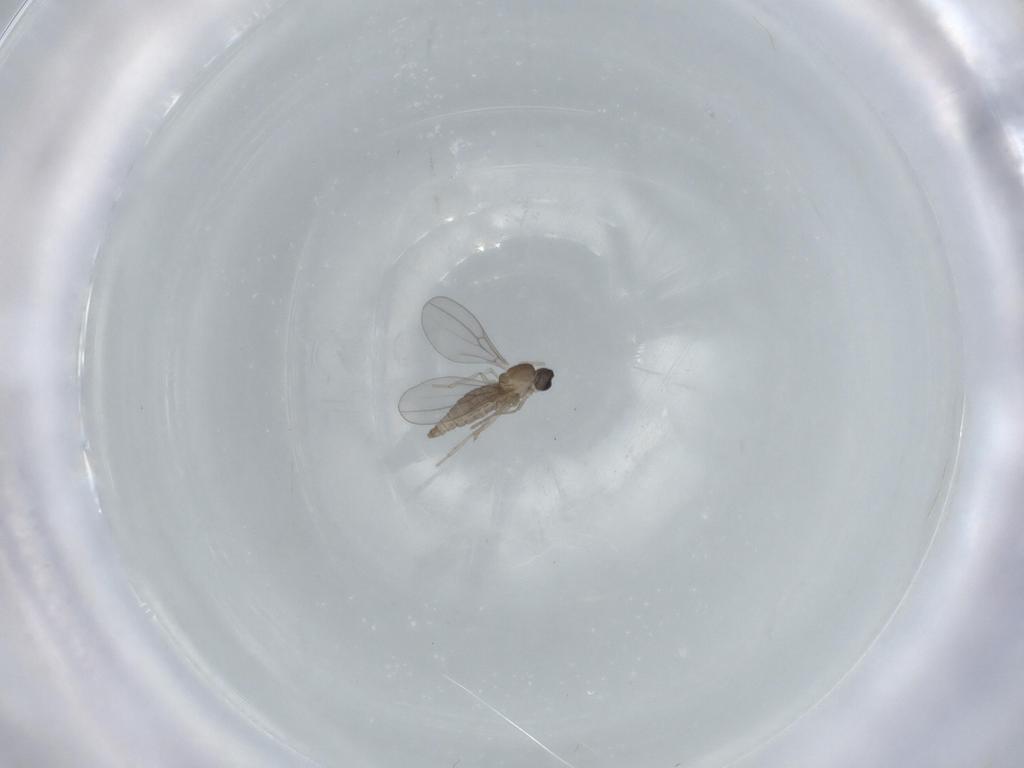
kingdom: Animalia
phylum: Arthropoda
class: Insecta
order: Diptera
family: Cecidomyiidae
